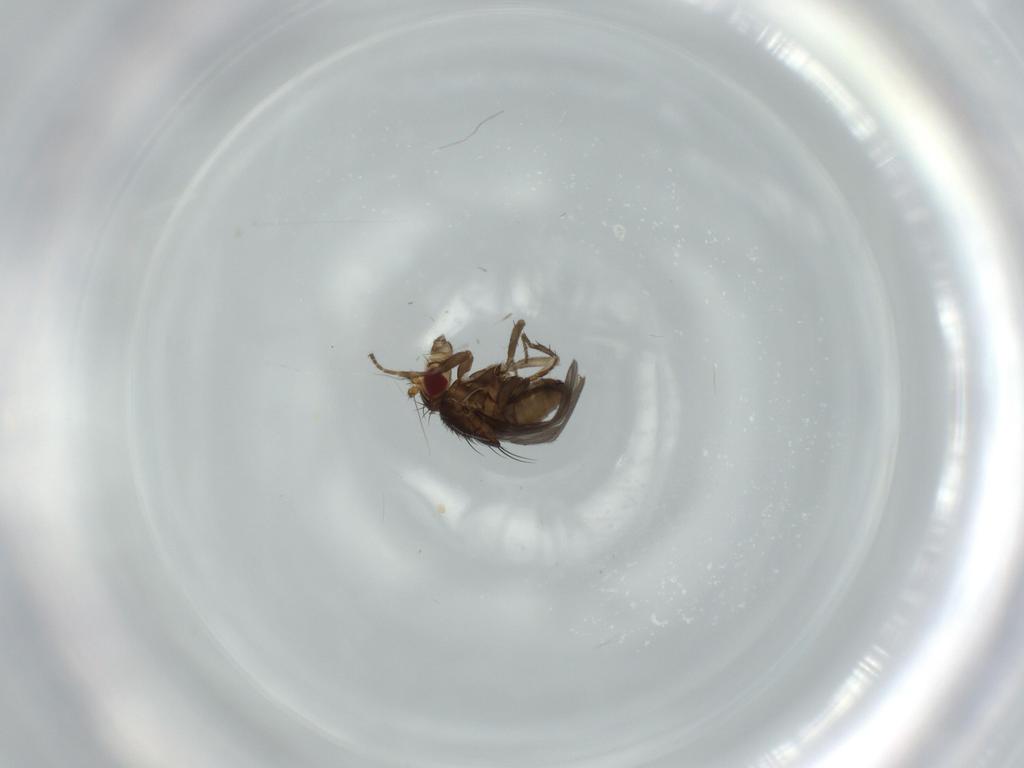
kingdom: Animalia
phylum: Arthropoda
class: Insecta
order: Diptera
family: Sphaeroceridae
